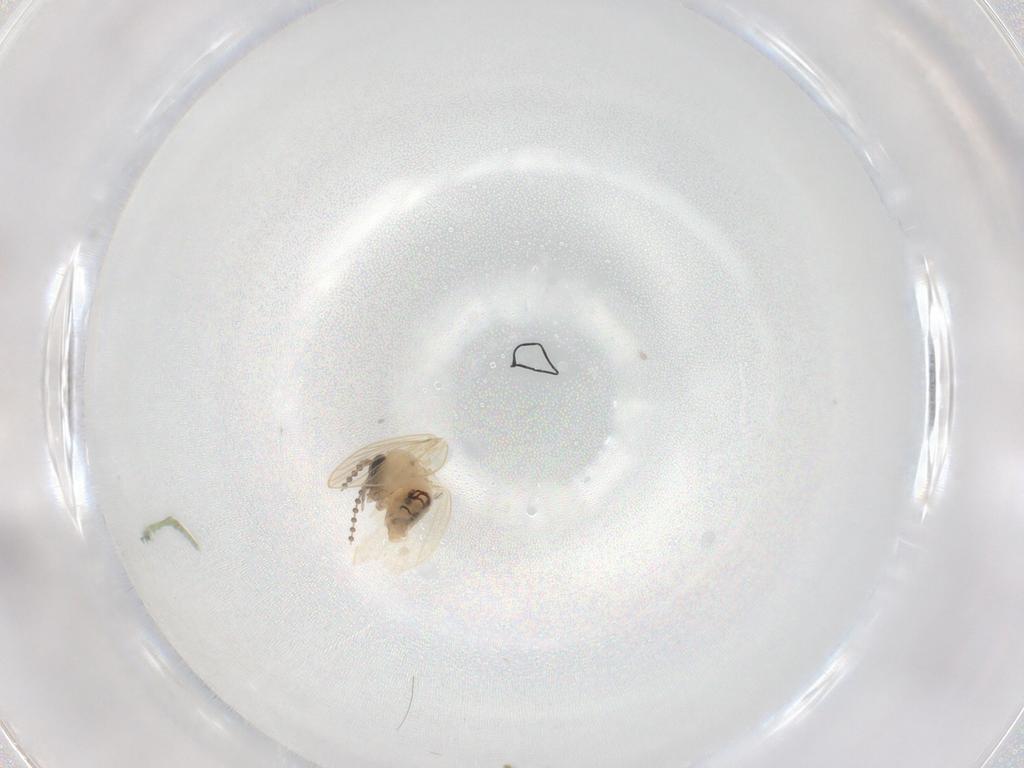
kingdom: Animalia
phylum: Arthropoda
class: Insecta
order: Diptera
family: Psychodidae
